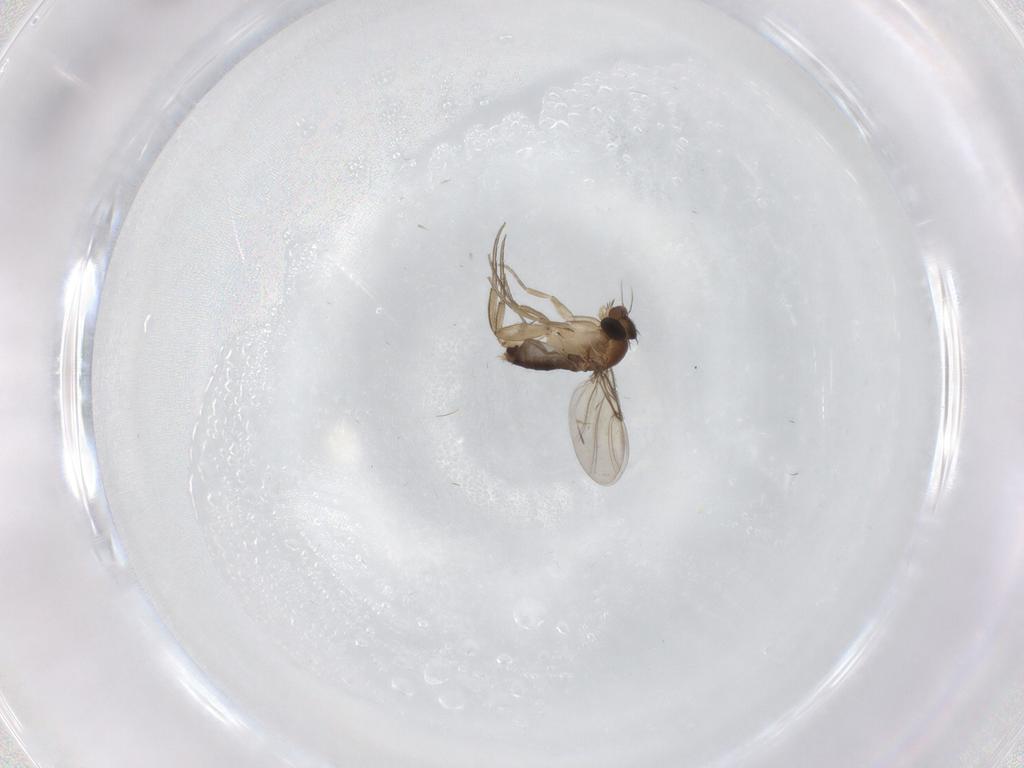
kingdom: Animalia
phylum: Arthropoda
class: Insecta
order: Diptera
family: Phoridae
